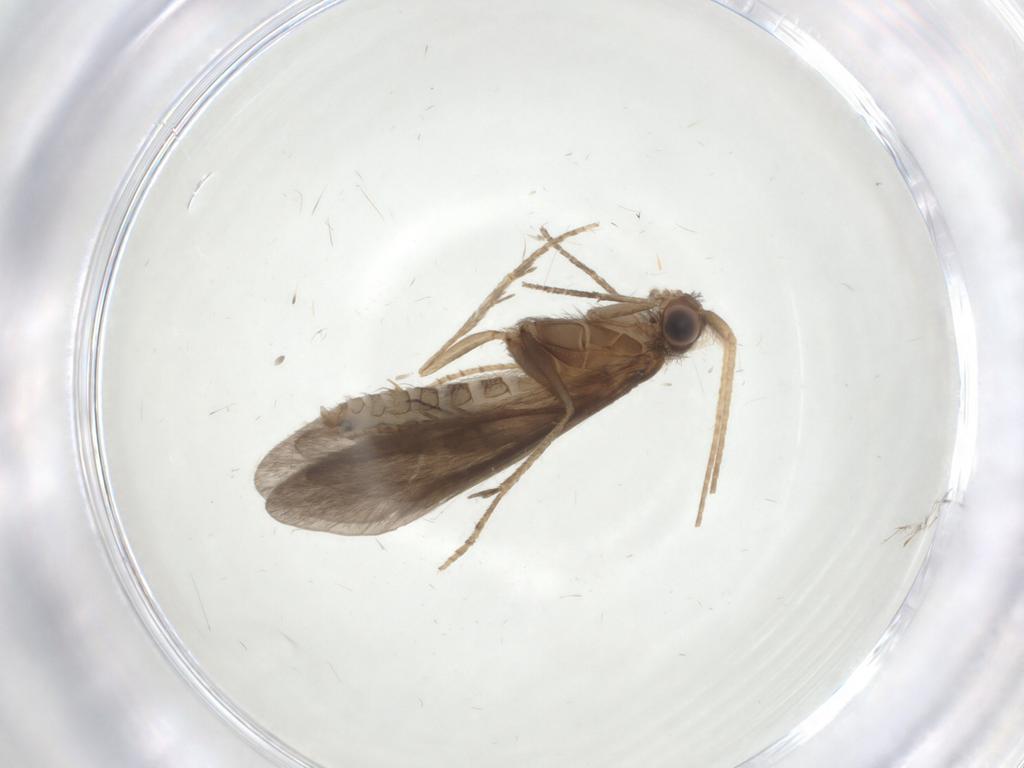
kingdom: Animalia
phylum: Arthropoda
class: Insecta
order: Trichoptera
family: Helicopsychidae
